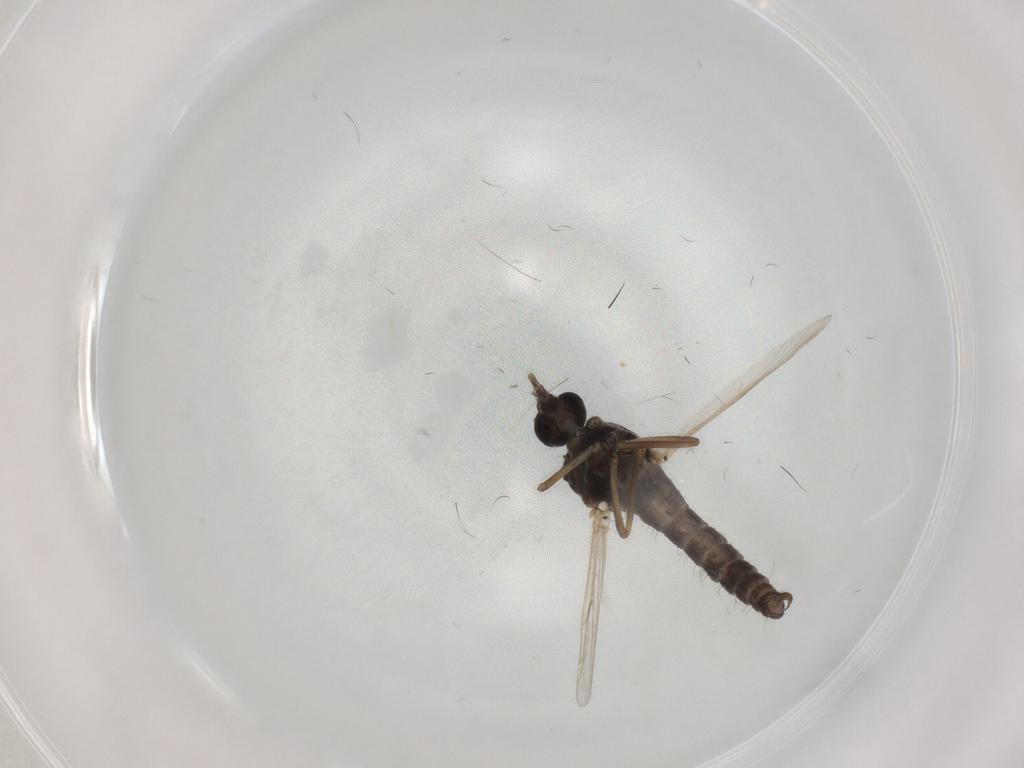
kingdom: Animalia
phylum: Arthropoda
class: Insecta
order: Diptera
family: Ceratopogonidae
